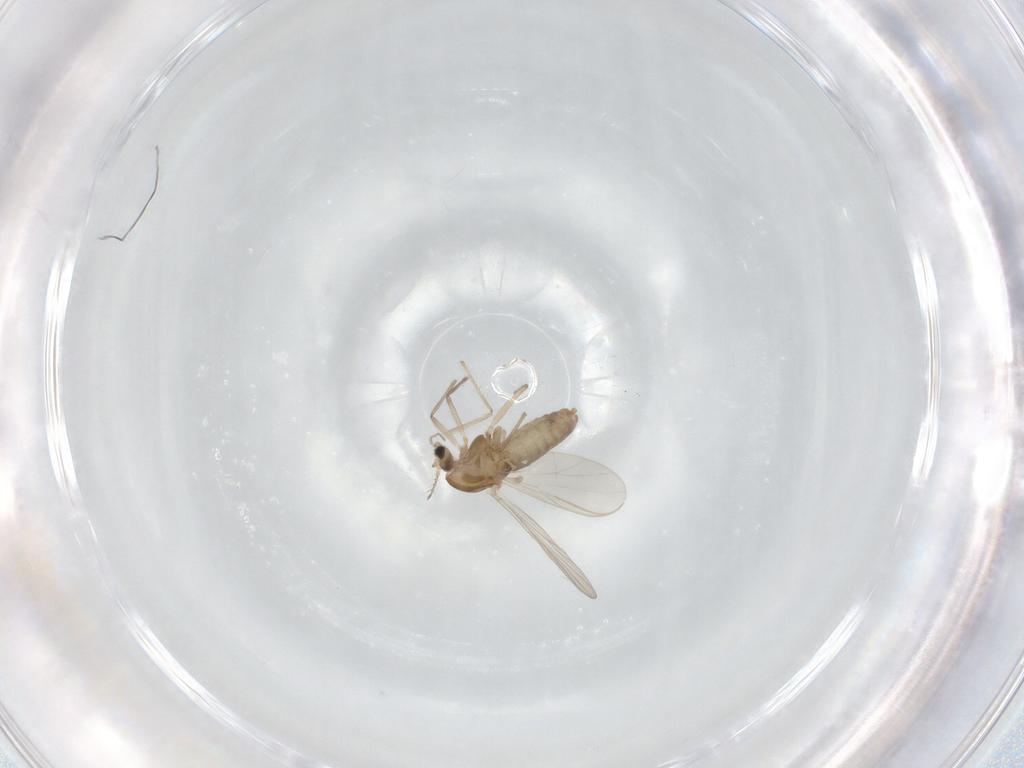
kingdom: Animalia
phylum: Arthropoda
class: Insecta
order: Diptera
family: Chironomidae
